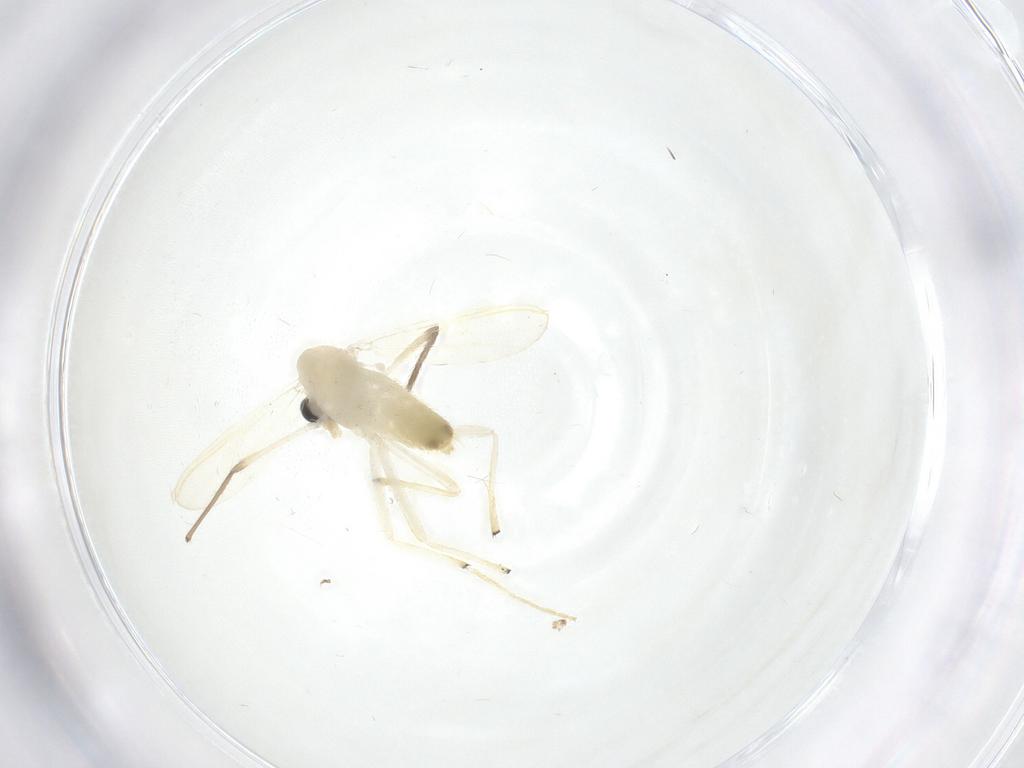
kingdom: Animalia
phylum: Arthropoda
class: Insecta
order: Diptera
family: Chironomidae
